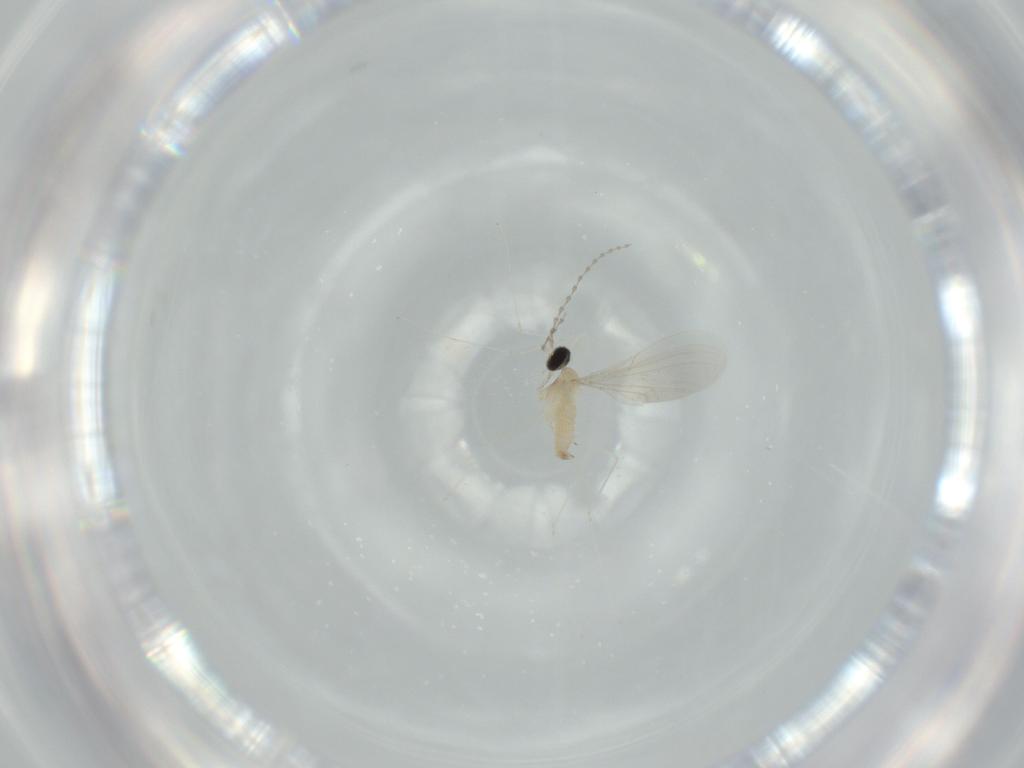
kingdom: Animalia
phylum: Arthropoda
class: Insecta
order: Diptera
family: Cecidomyiidae
